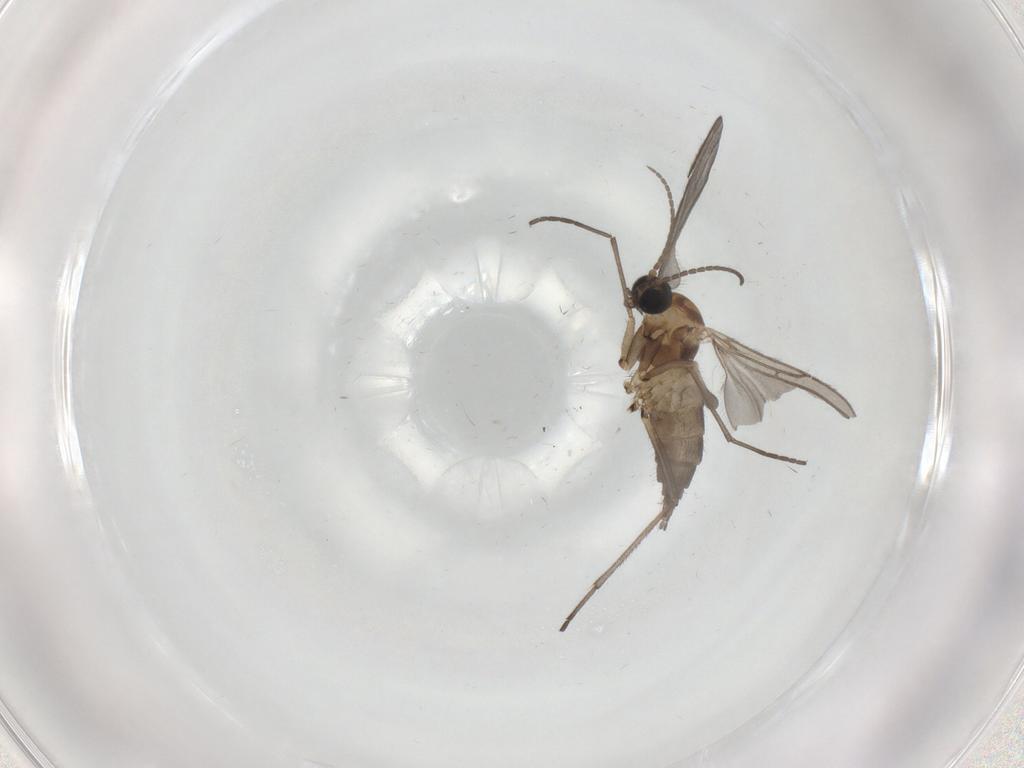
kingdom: Animalia
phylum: Arthropoda
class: Insecta
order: Diptera
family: Sciaridae
